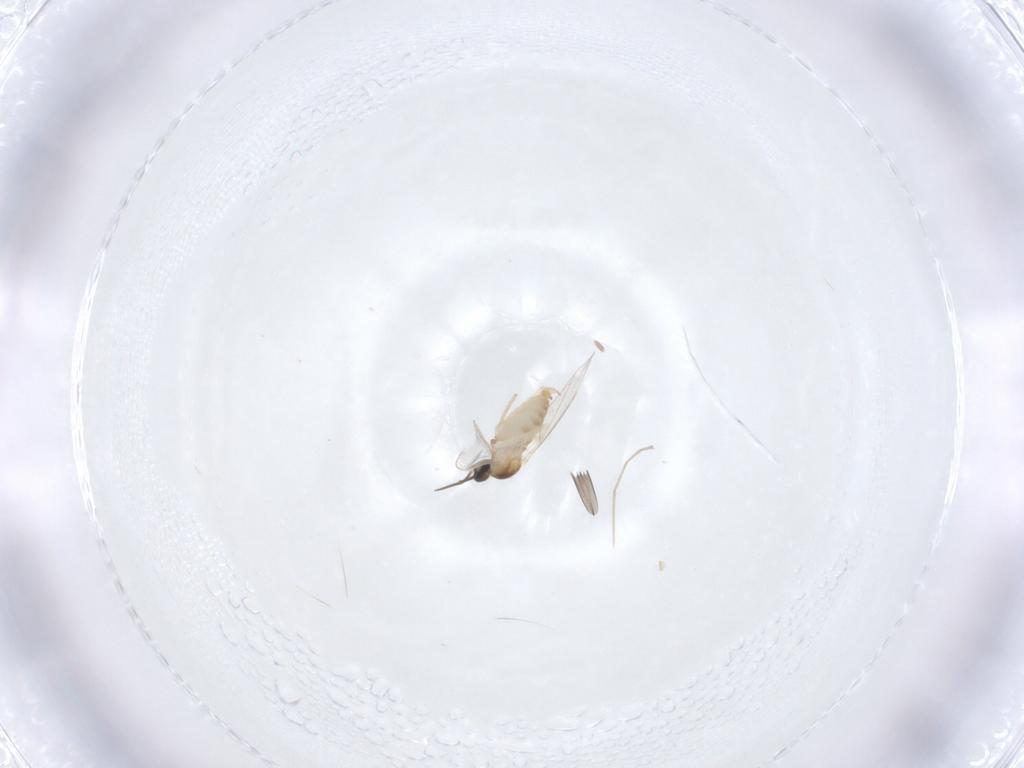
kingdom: Animalia
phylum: Arthropoda
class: Insecta
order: Diptera
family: Cecidomyiidae
